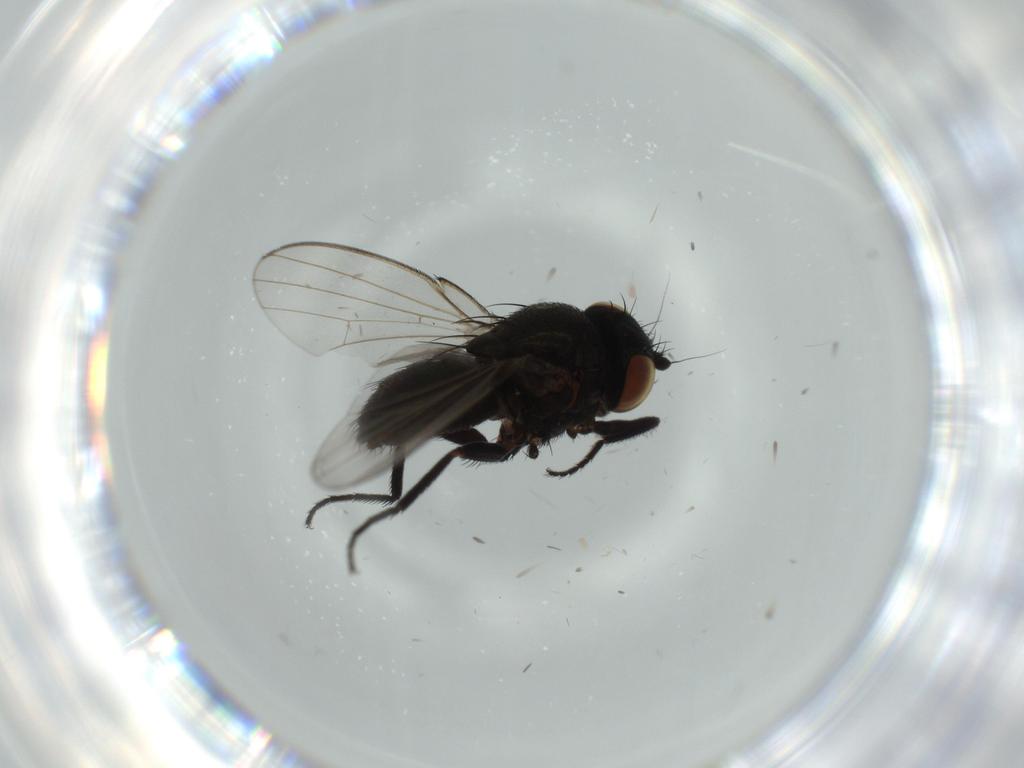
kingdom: Animalia
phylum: Arthropoda
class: Insecta
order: Diptera
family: Milichiidae
